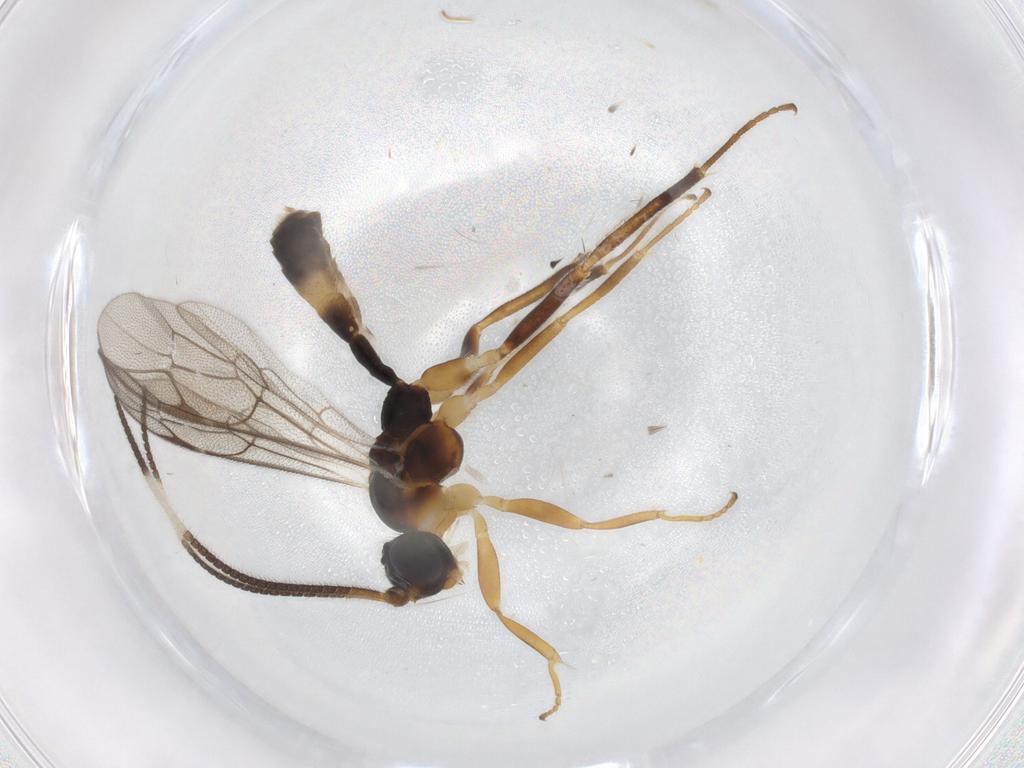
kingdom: Animalia
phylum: Arthropoda
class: Insecta
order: Hymenoptera
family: Ichneumonidae
